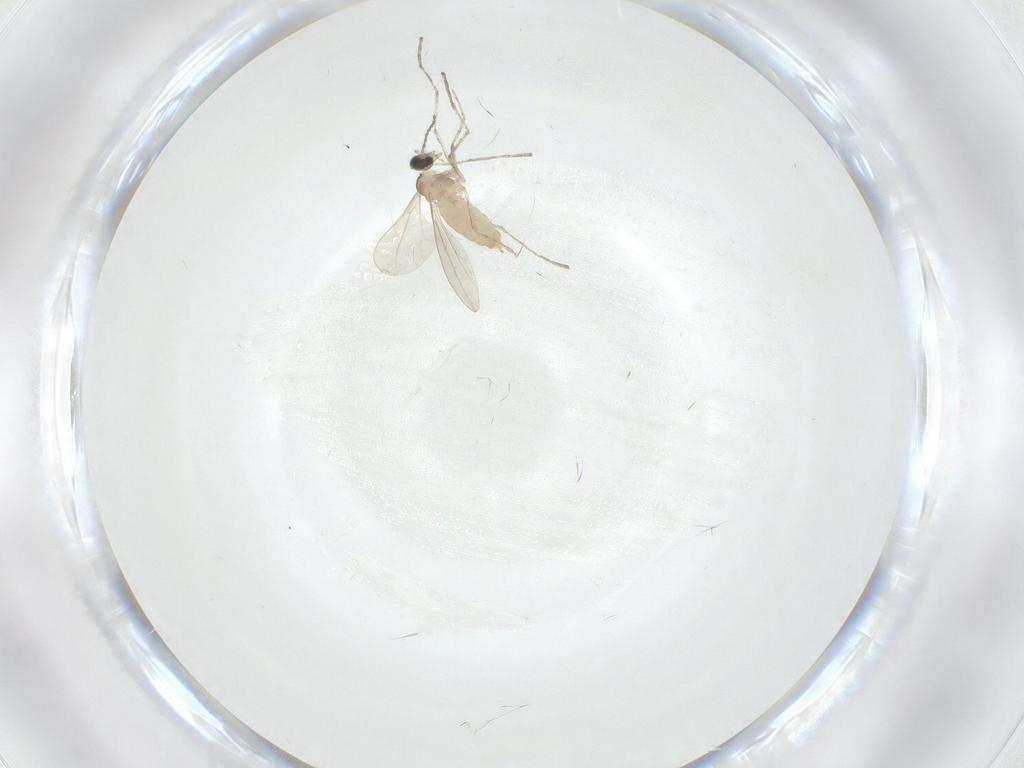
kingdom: Animalia
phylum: Arthropoda
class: Insecta
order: Diptera
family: Cecidomyiidae
